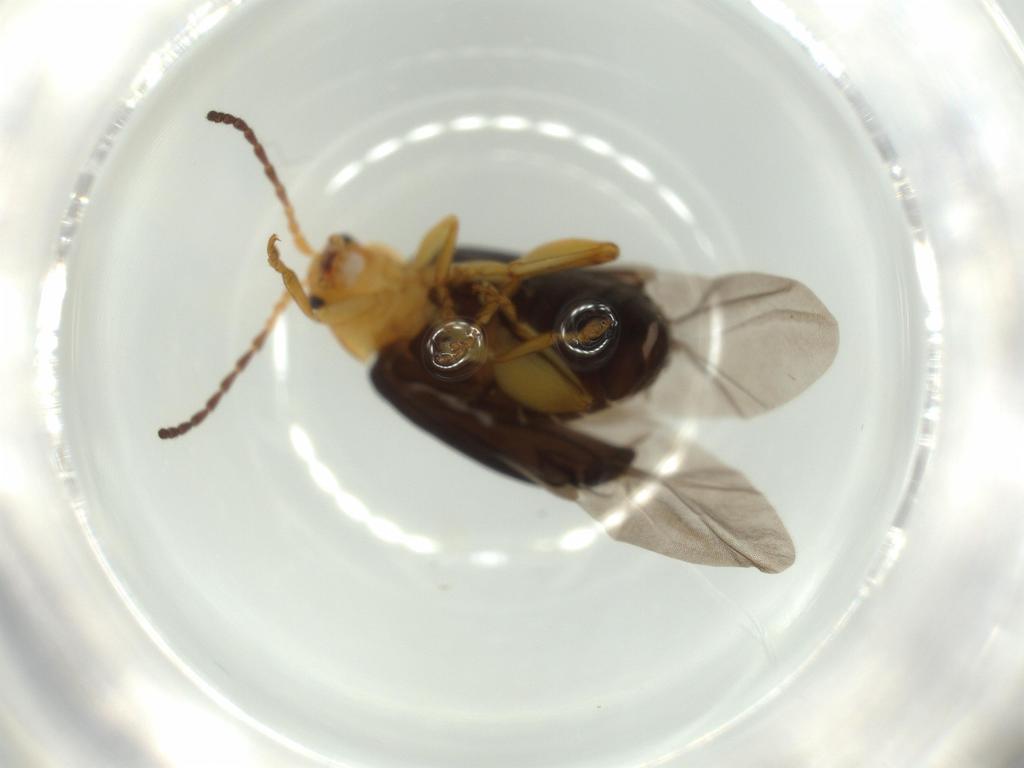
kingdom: Animalia
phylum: Arthropoda
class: Insecta
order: Coleoptera
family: Chrysomelidae
